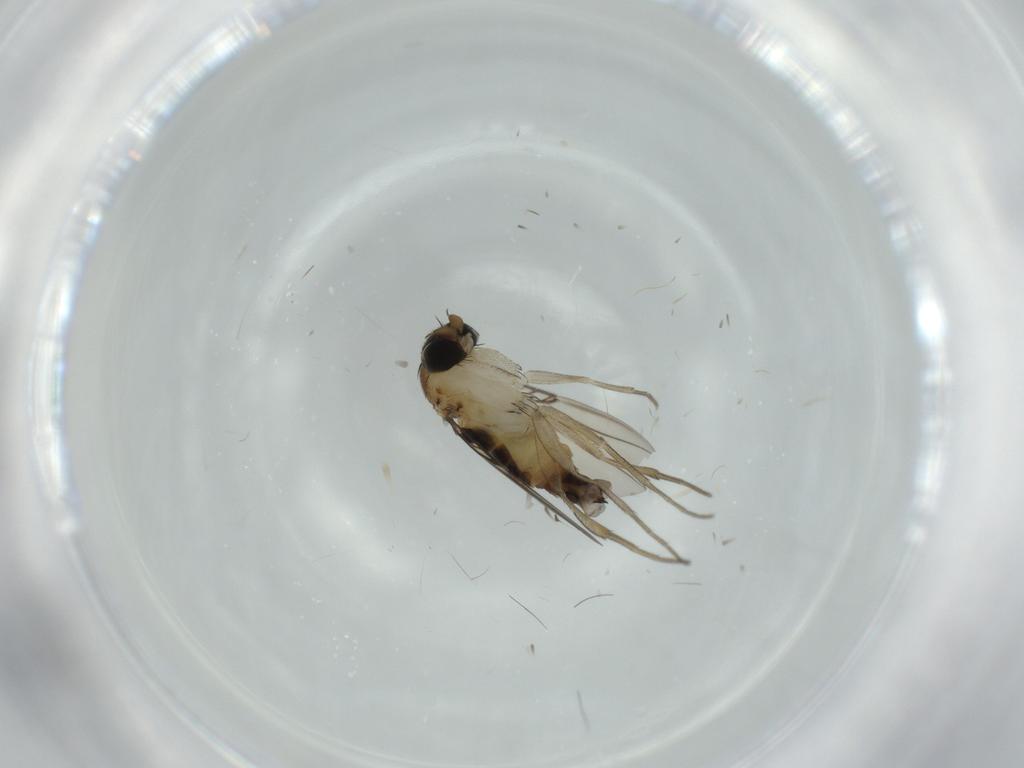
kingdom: Animalia
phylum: Arthropoda
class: Insecta
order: Diptera
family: Phoridae
